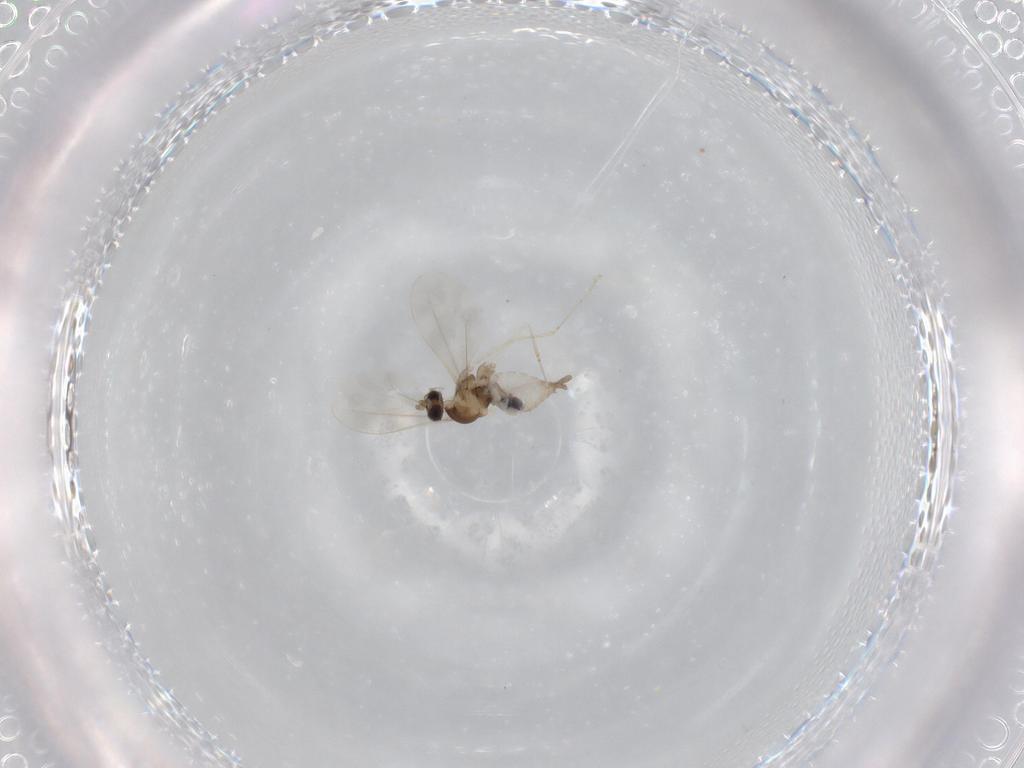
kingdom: Animalia
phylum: Arthropoda
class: Insecta
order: Diptera
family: Cecidomyiidae
